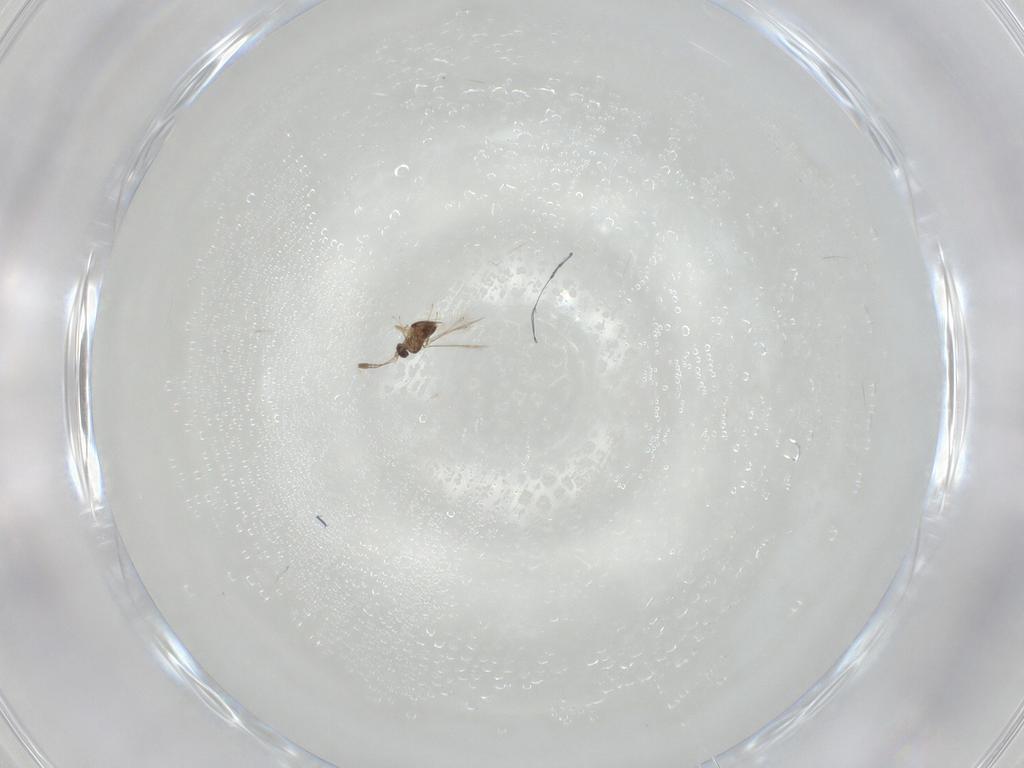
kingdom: Animalia
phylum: Arthropoda
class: Insecta
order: Hymenoptera
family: Mymaridae
